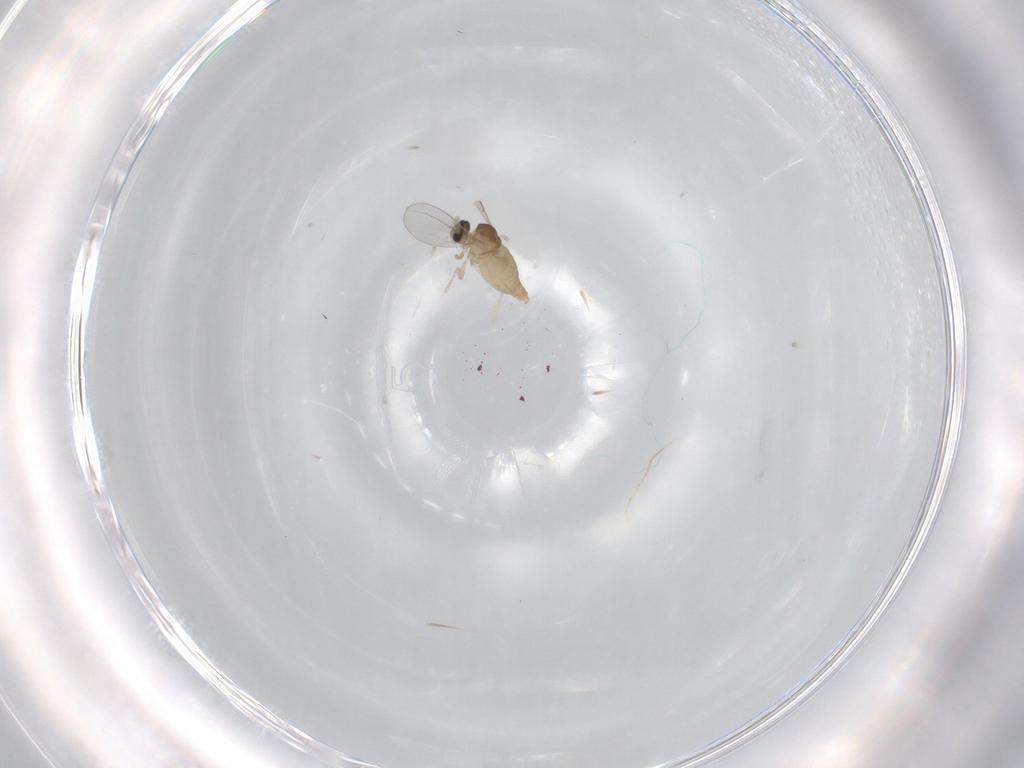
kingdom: Animalia
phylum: Arthropoda
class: Insecta
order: Diptera
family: Cecidomyiidae
